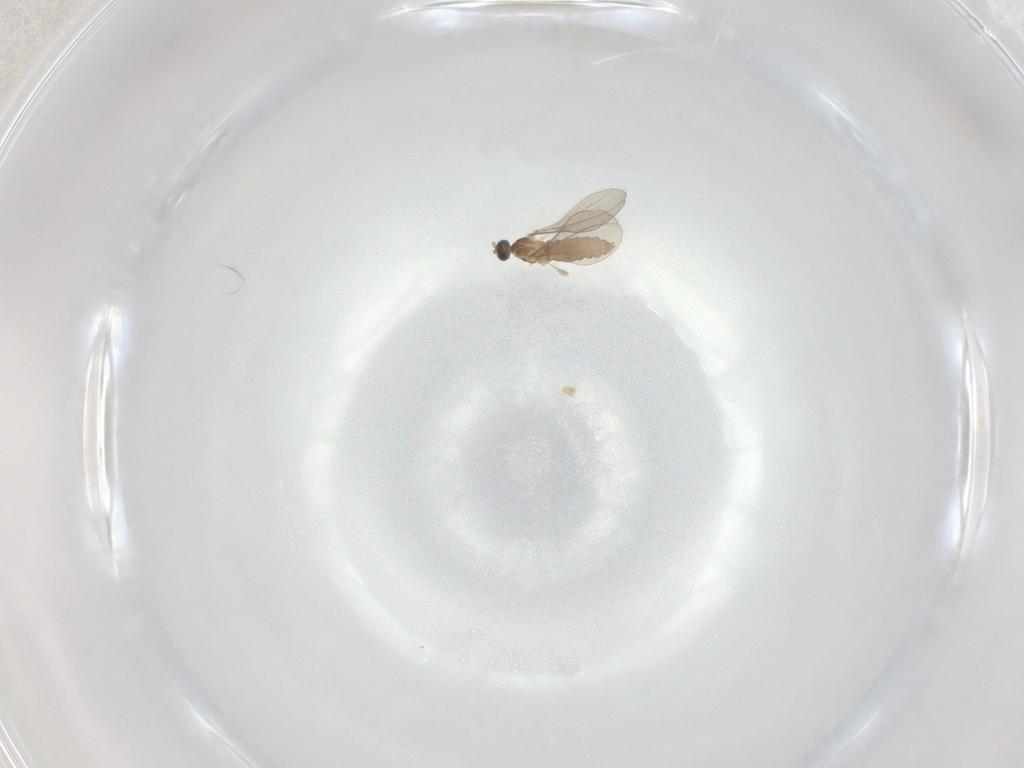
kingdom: Animalia
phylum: Arthropoda
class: Insecta
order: Diptera
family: Cecidomyiidae
